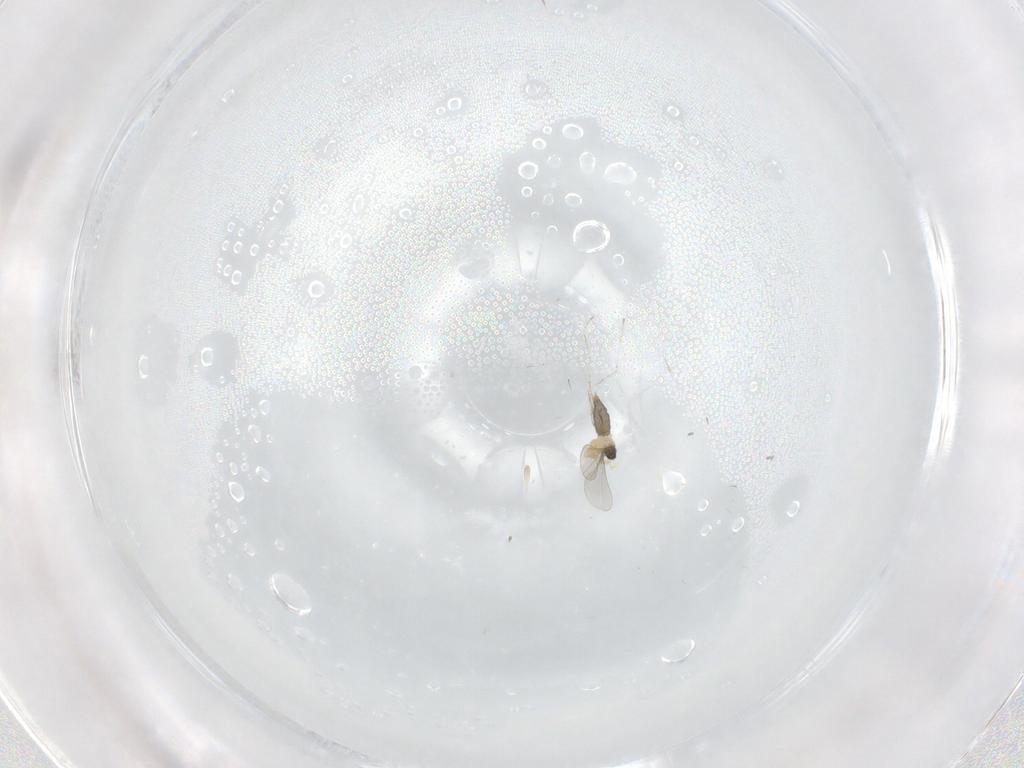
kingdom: Animalia
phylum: Arthropoda
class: Insecta
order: Diptera
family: Cecidomyiidae
